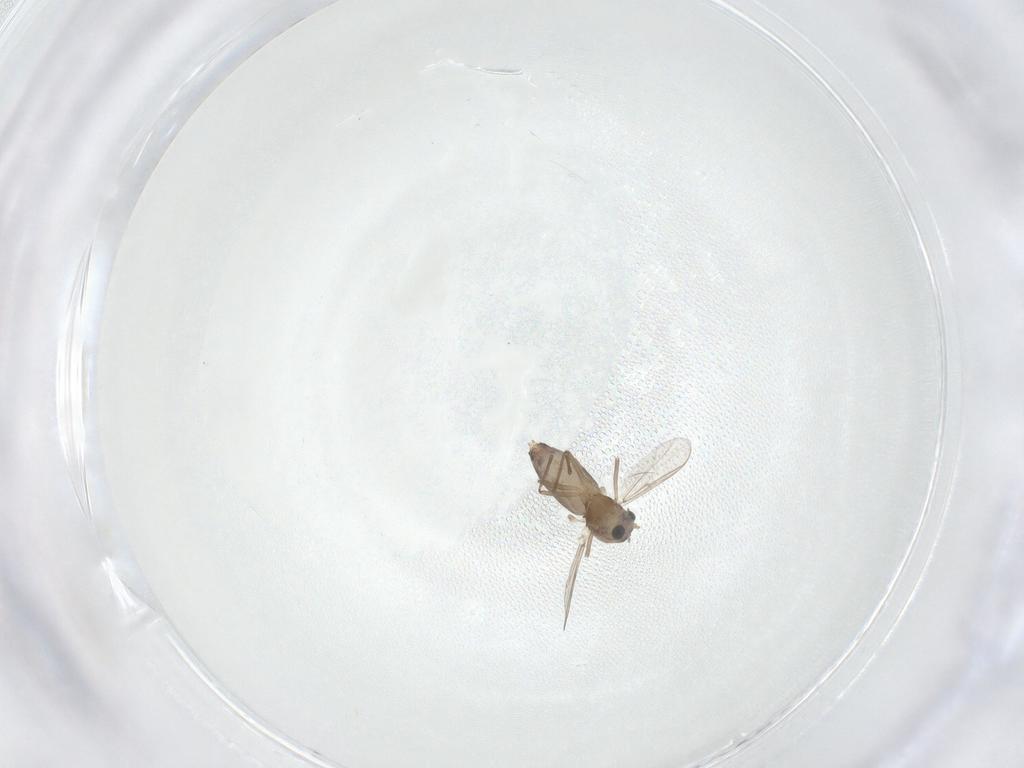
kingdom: Animalia
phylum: Arthropoda
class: Insecta
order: Diptera
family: Chironomidae
